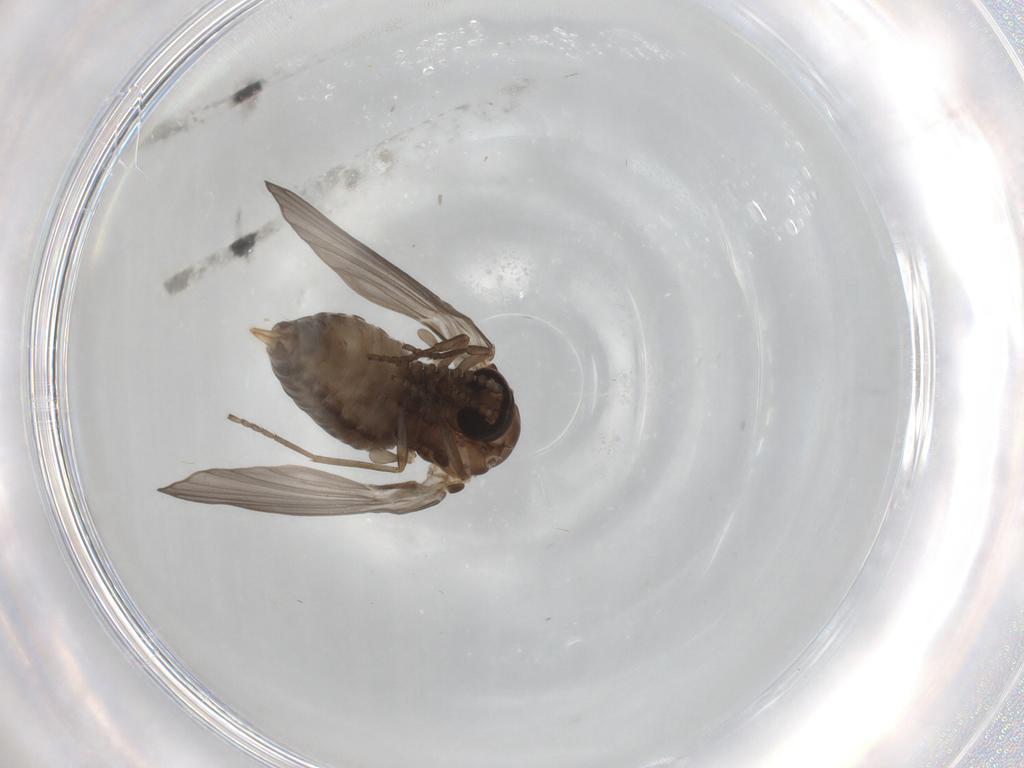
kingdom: Animalia
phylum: Arthropoda
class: Insecta
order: Diptera
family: Psychodidae
